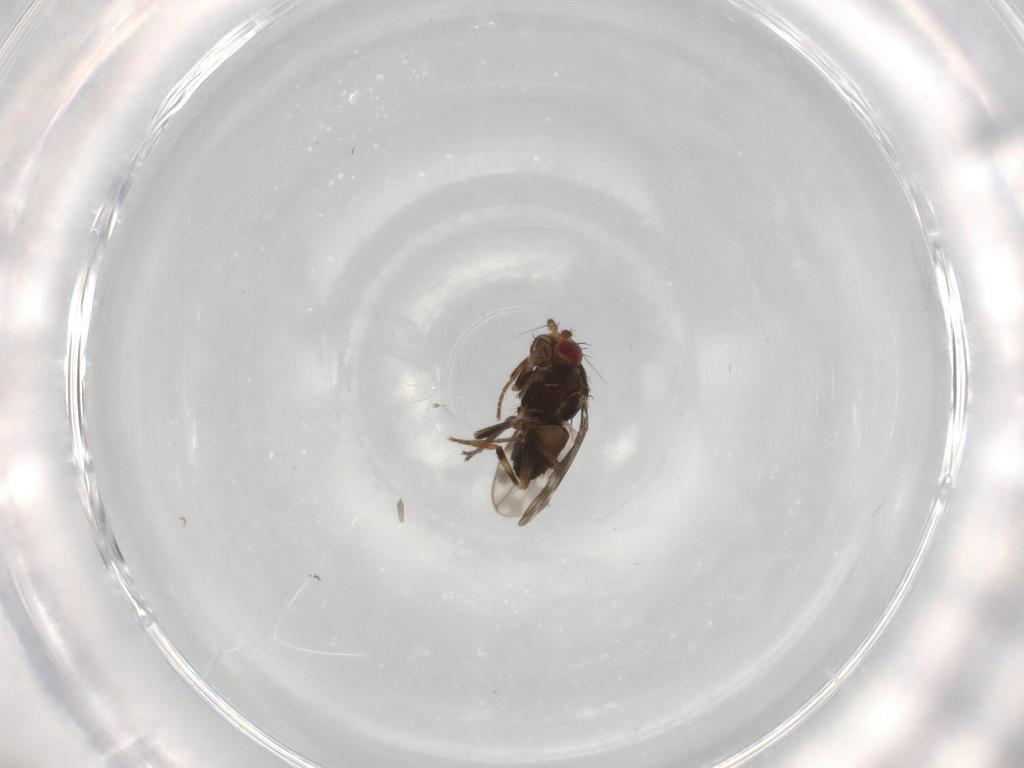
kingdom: Animalia
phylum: Arthropoda
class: Insecta
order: Diptera
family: Sphaeroceridae
